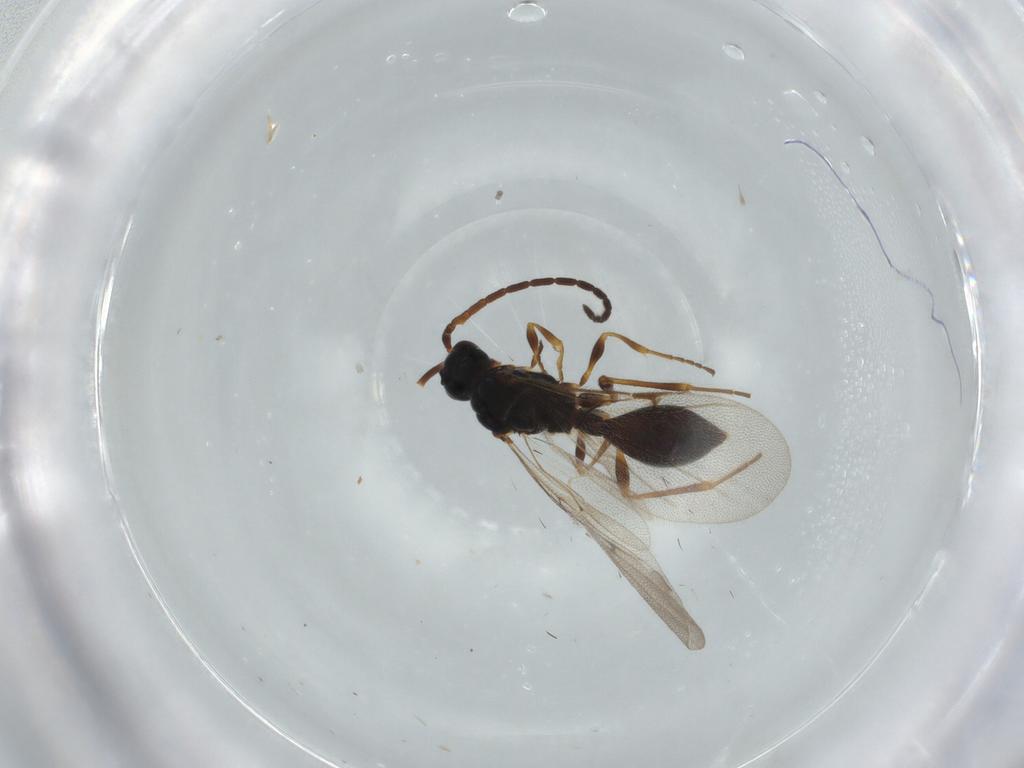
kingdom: Animalia
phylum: Arthropoda
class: Insecta
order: Hymenoptera
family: Diapriidae
